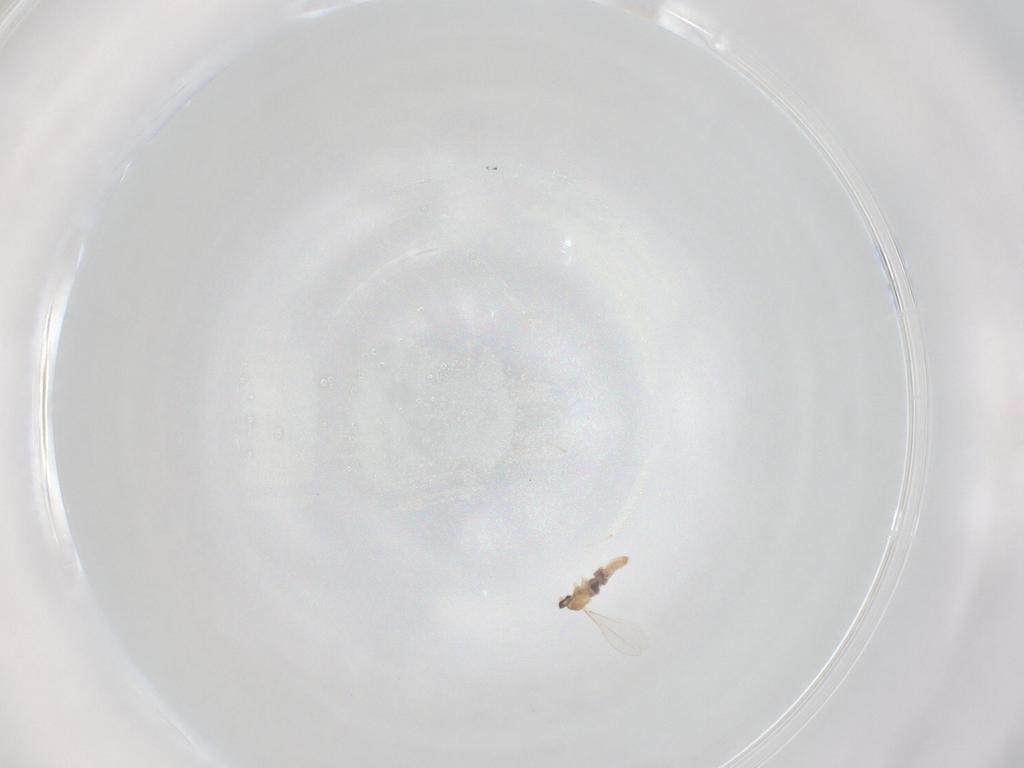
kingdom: Animalia
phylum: Arthropoda
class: Insecta
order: Diptera
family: Cecidomyiidae
